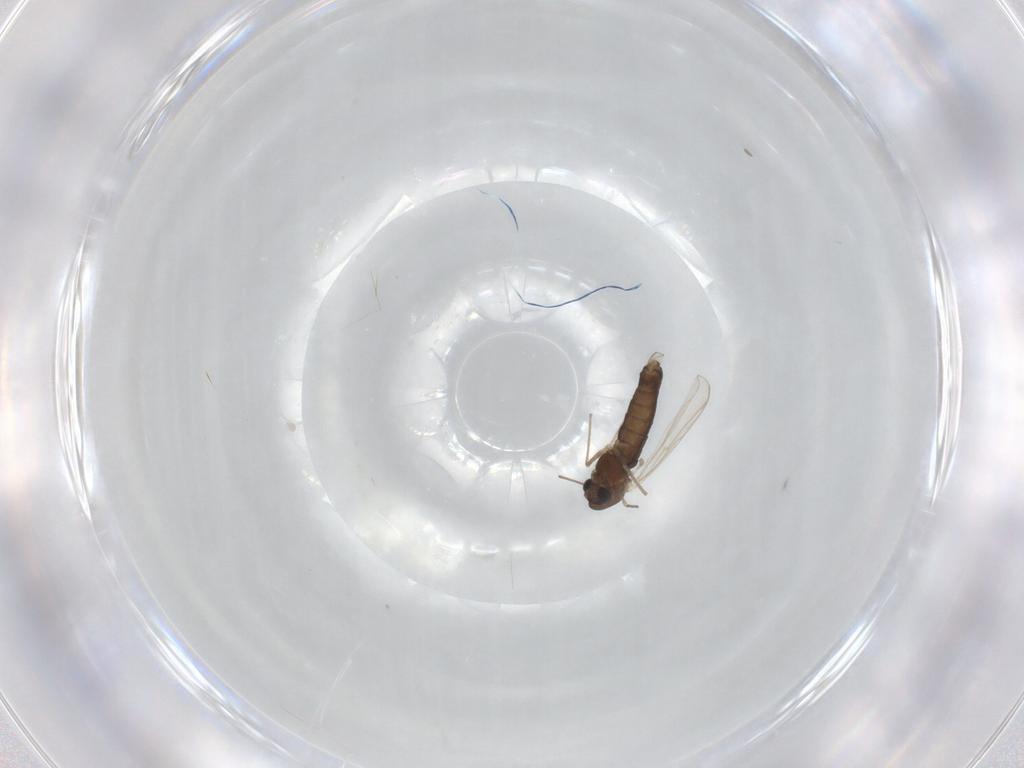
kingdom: Animalia
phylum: Arthropoda
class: Insecta
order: Diptera
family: Chironomidae
